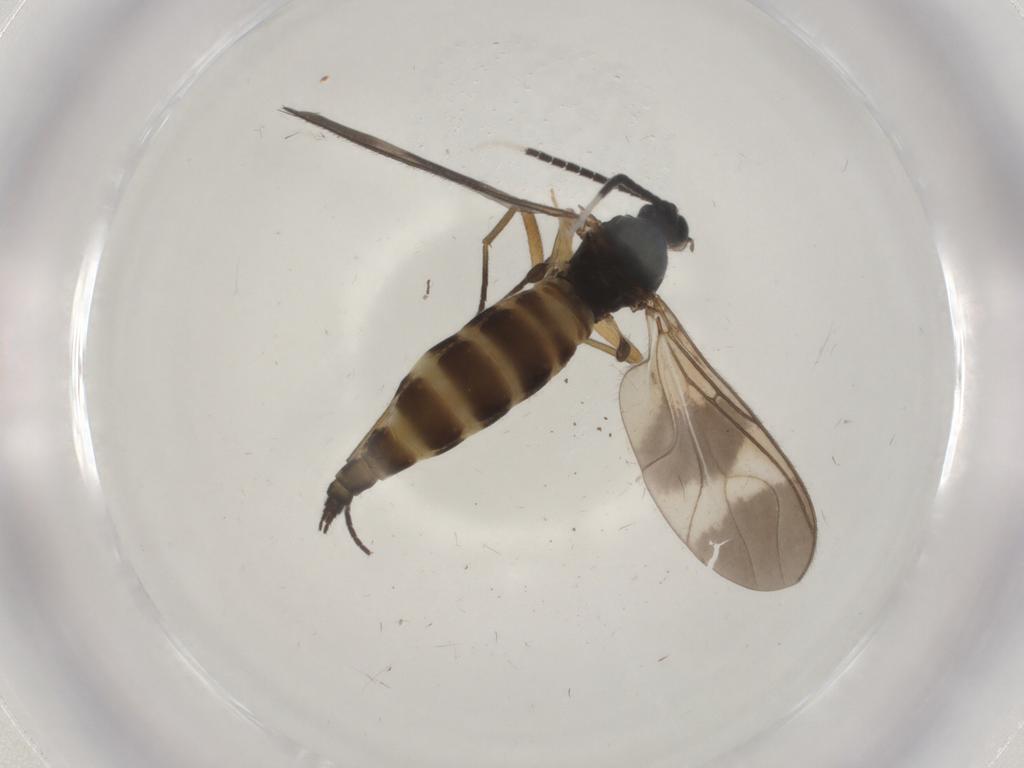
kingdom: Animalia
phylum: Arthropoda
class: Insecta
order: Diptera
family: Sciaridae
